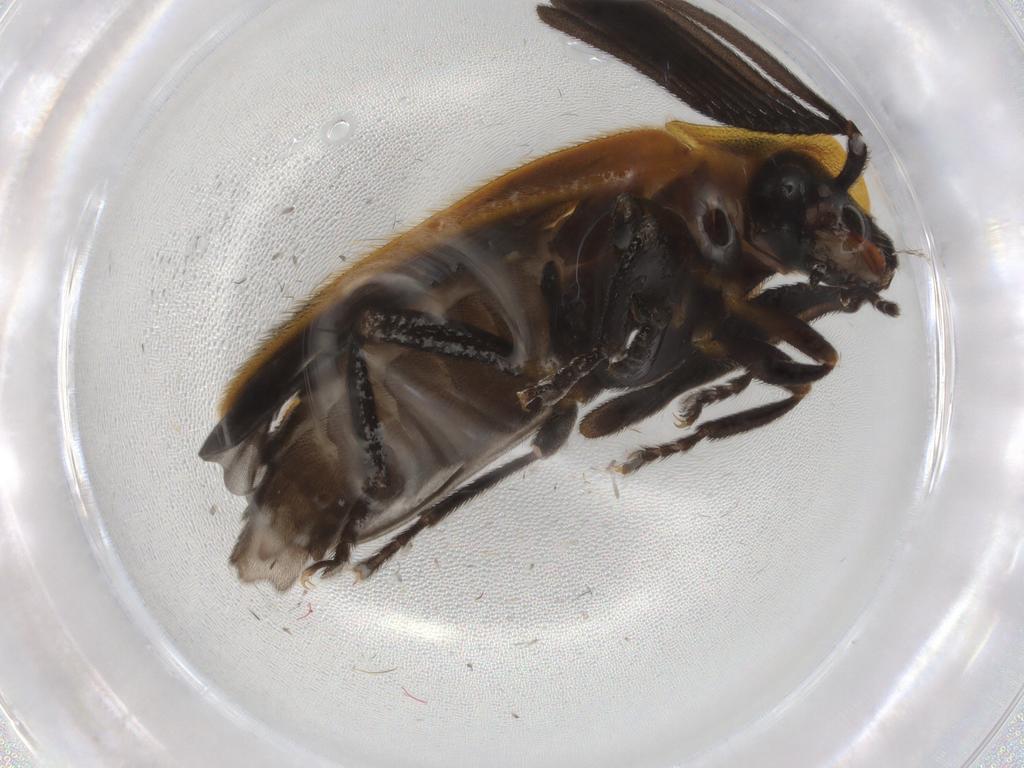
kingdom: Animalia
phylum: Arthropoda
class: Insecta
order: Coleoptera
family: Lampyridae
